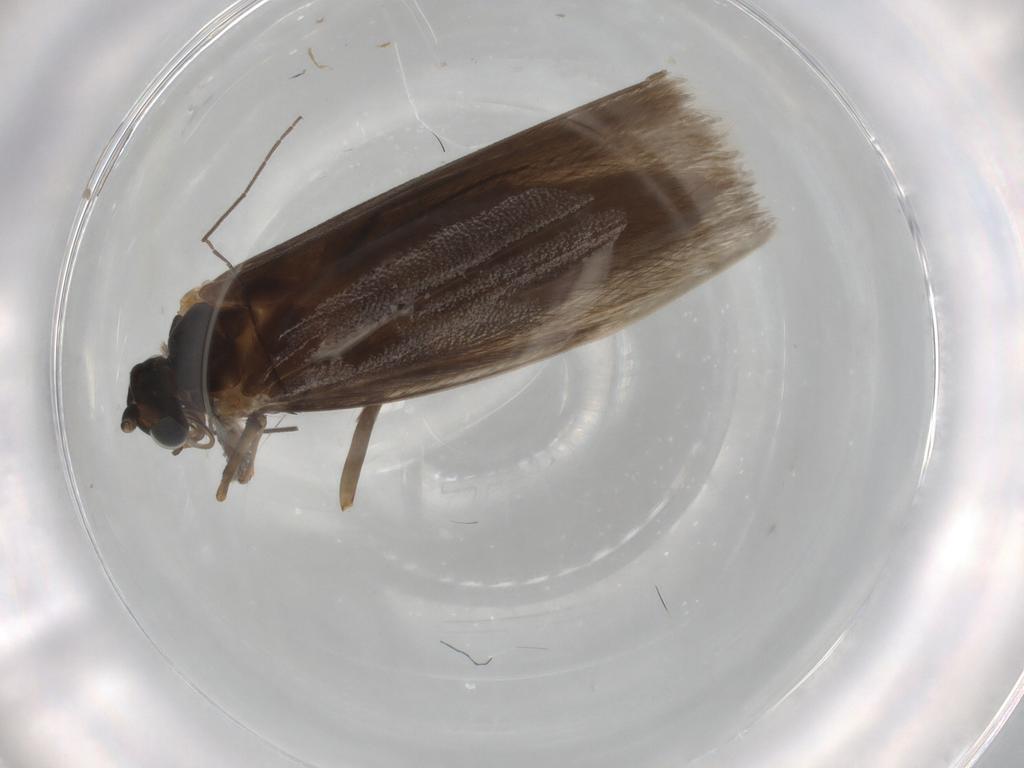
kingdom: Animalia
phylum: Arthropoda
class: Insecta
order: Lepidoptera
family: Adelidae
